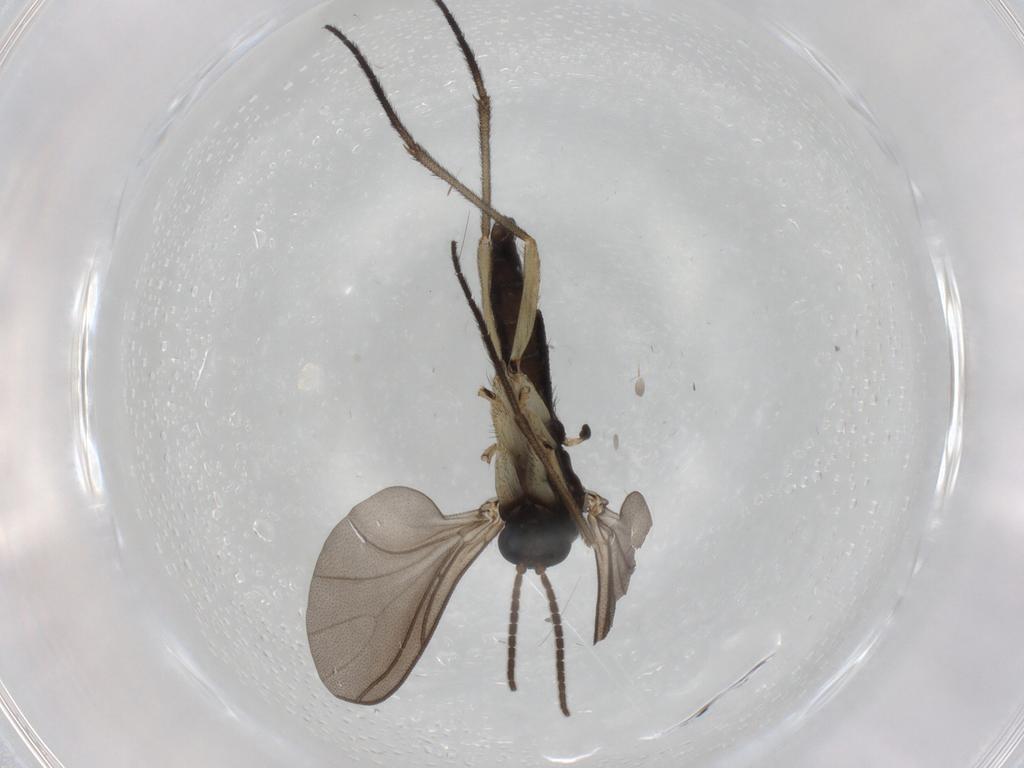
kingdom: Animalia
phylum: Arthropoda
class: Insecta
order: Diptera
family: Sciaridae
